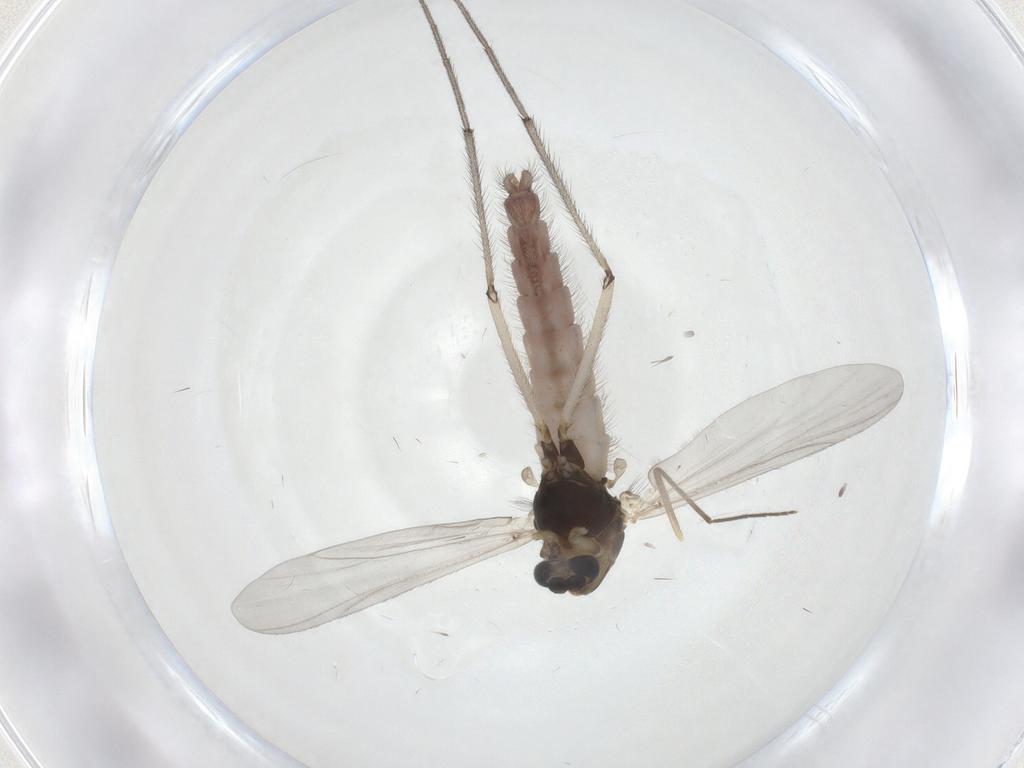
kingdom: Animalia
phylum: Arthropoda
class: Insecta
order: Diptera
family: Chironomidae
